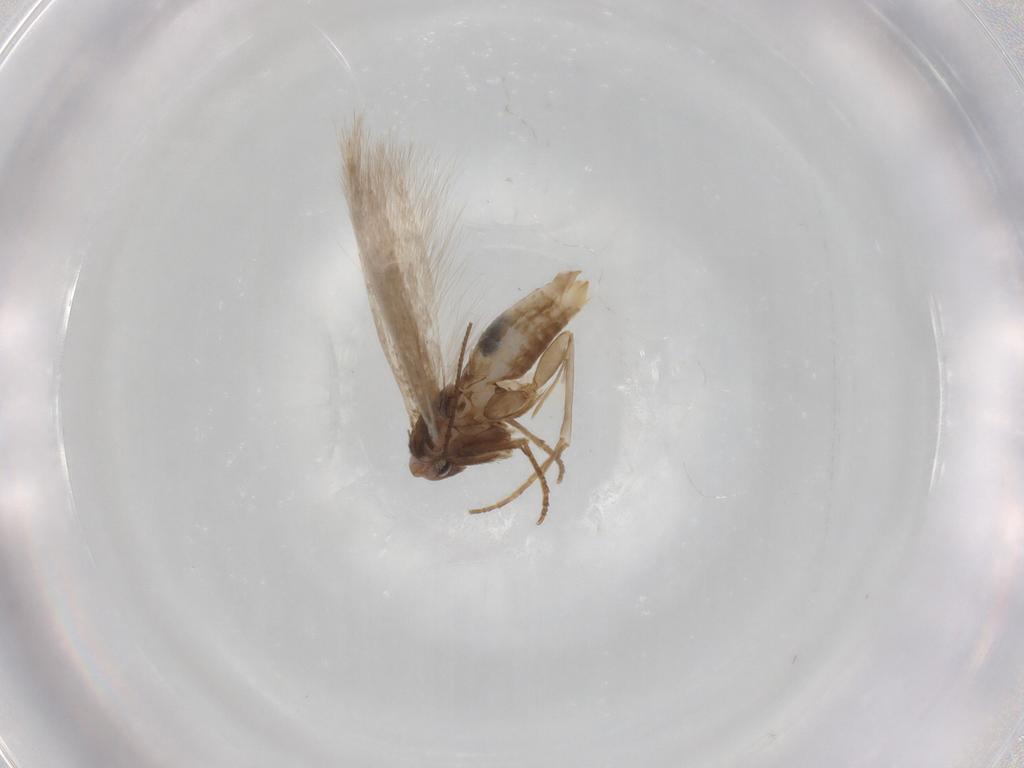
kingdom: Animalia
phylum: Arthropoda
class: Insecta
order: Lepidoptera
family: Bucculatricidae
